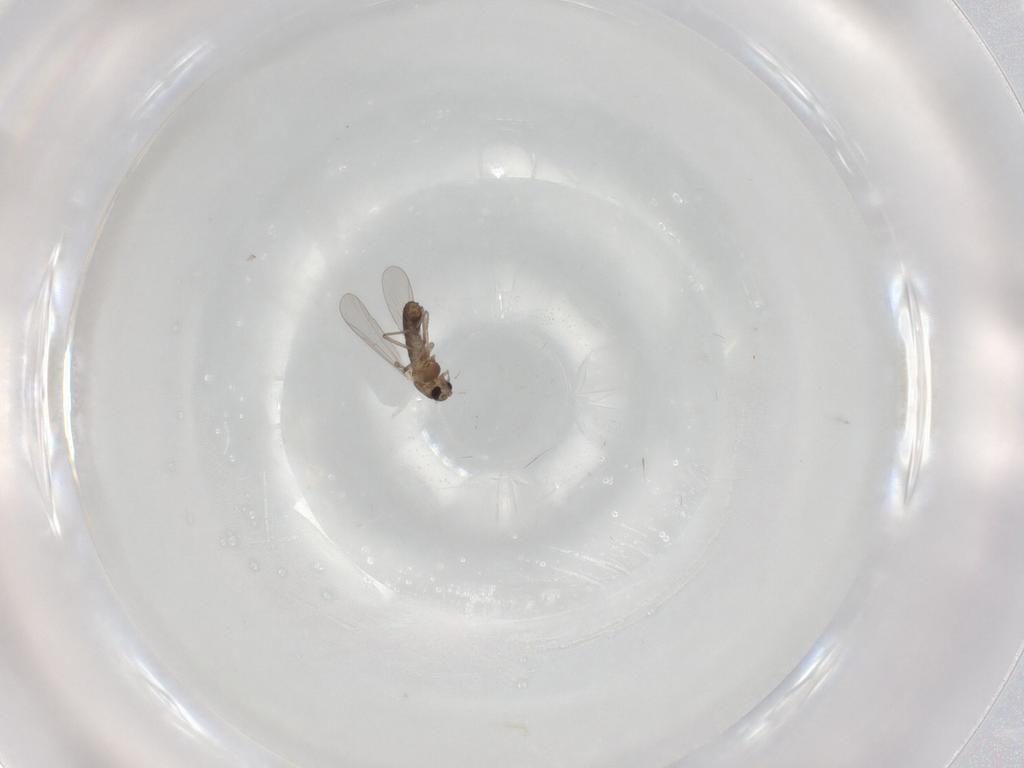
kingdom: Animalia
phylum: Arthropoda
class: Insecta
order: Diptera
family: Chironomidae
